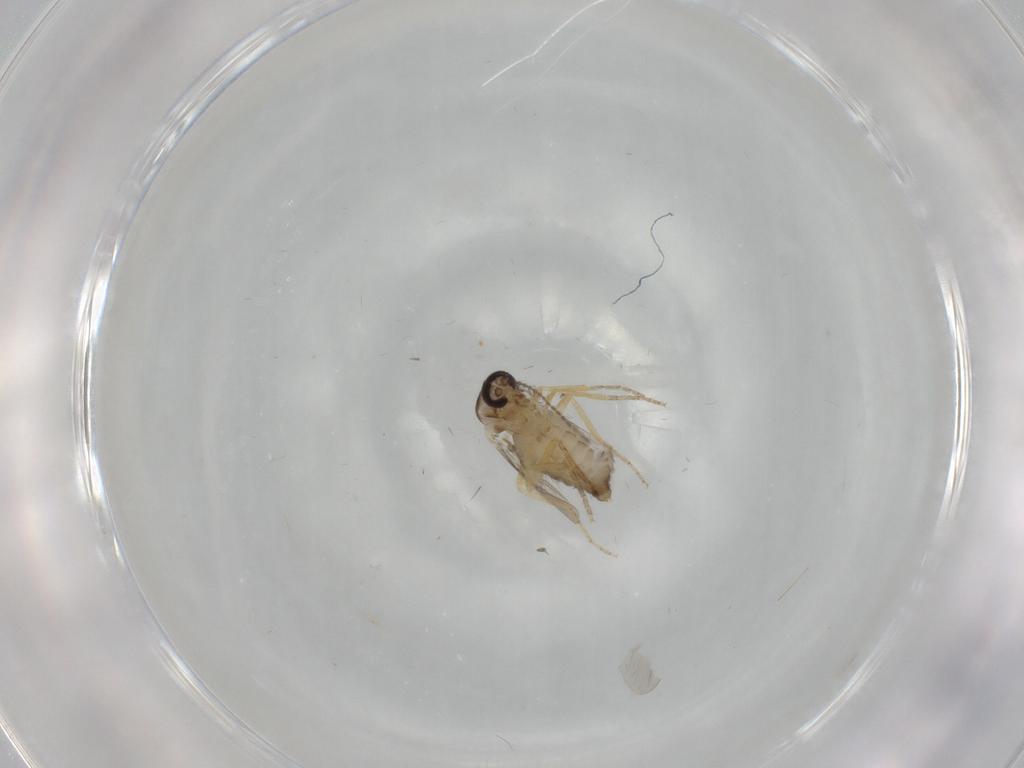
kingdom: Animalia
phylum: Arthropoda
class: Insecta
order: Diptera
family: Ceratopogonidae
